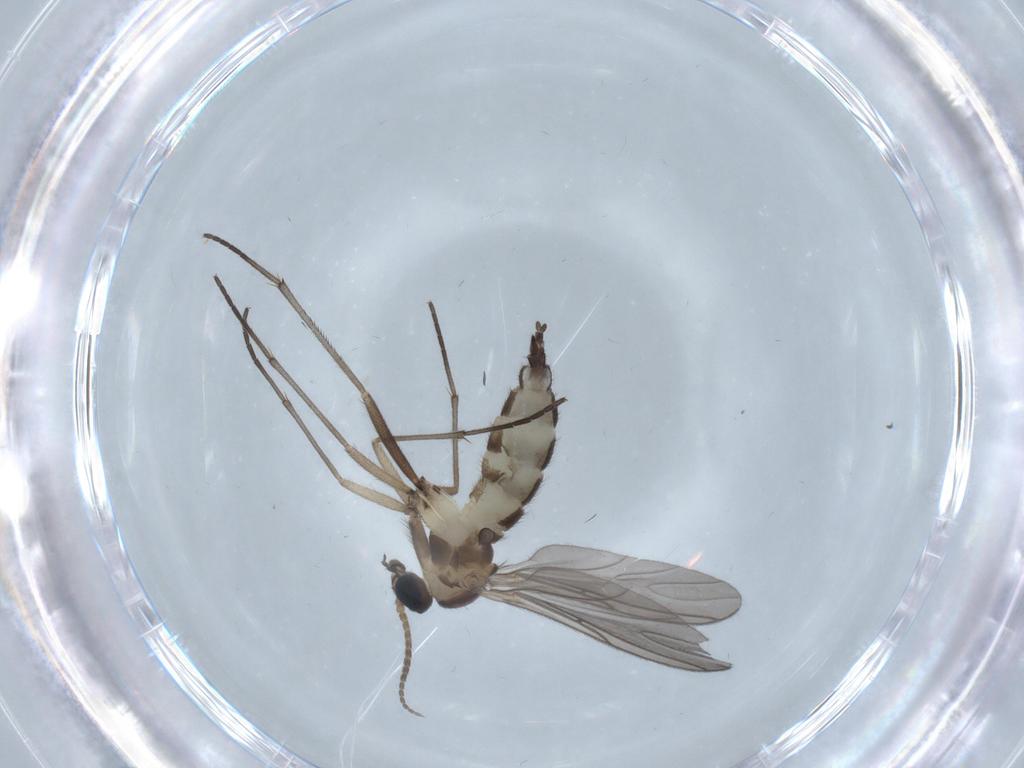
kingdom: Animalia
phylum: Arthropoda
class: Insecta
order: Diptera
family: Sciaridae
